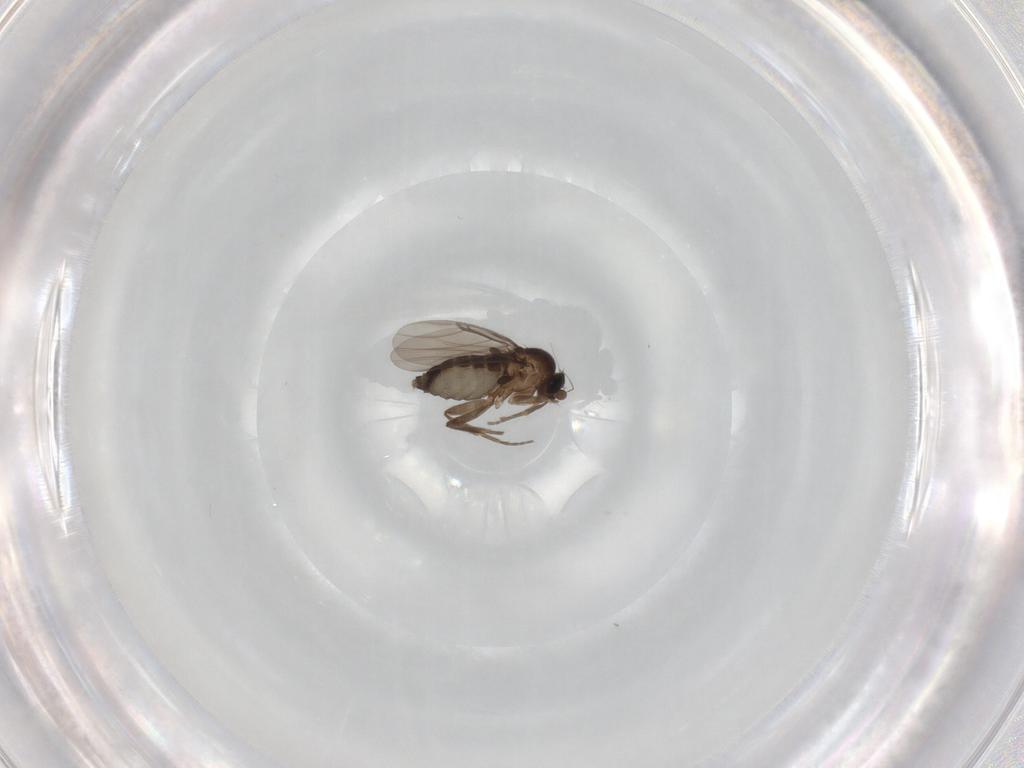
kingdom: Animalia
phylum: Arthropoda
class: Insecta
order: Diptera
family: Phoridae
